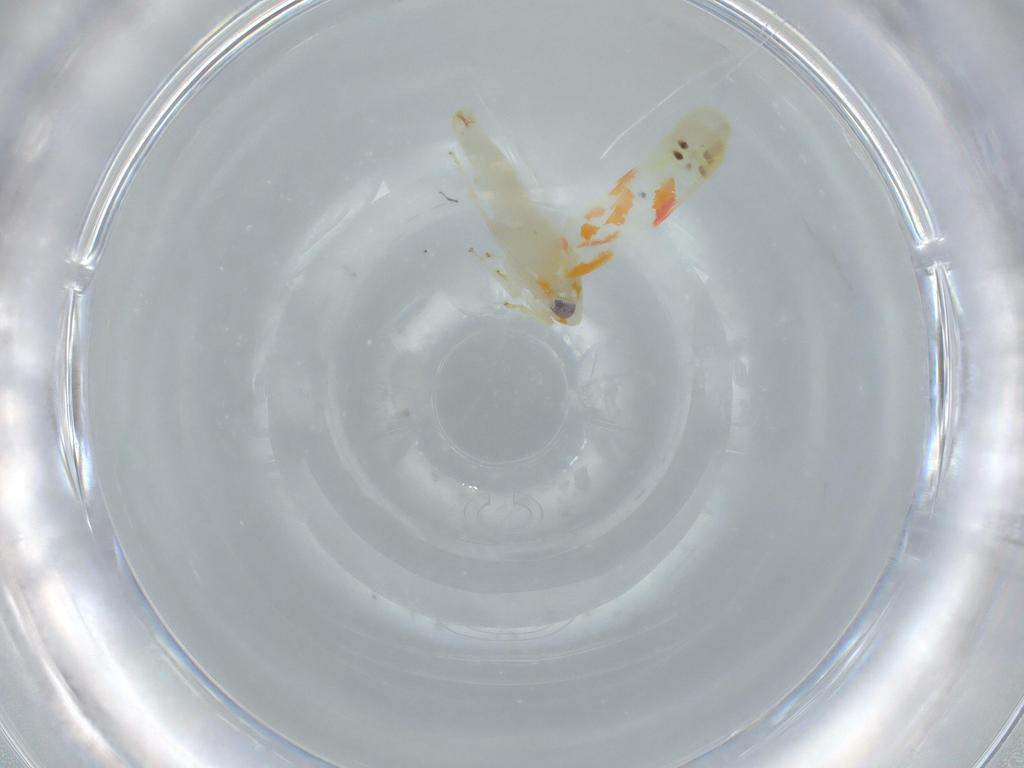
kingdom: Animalia
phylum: Arthropoda
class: Insecta
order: Hemiptera
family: Cicadellidae
